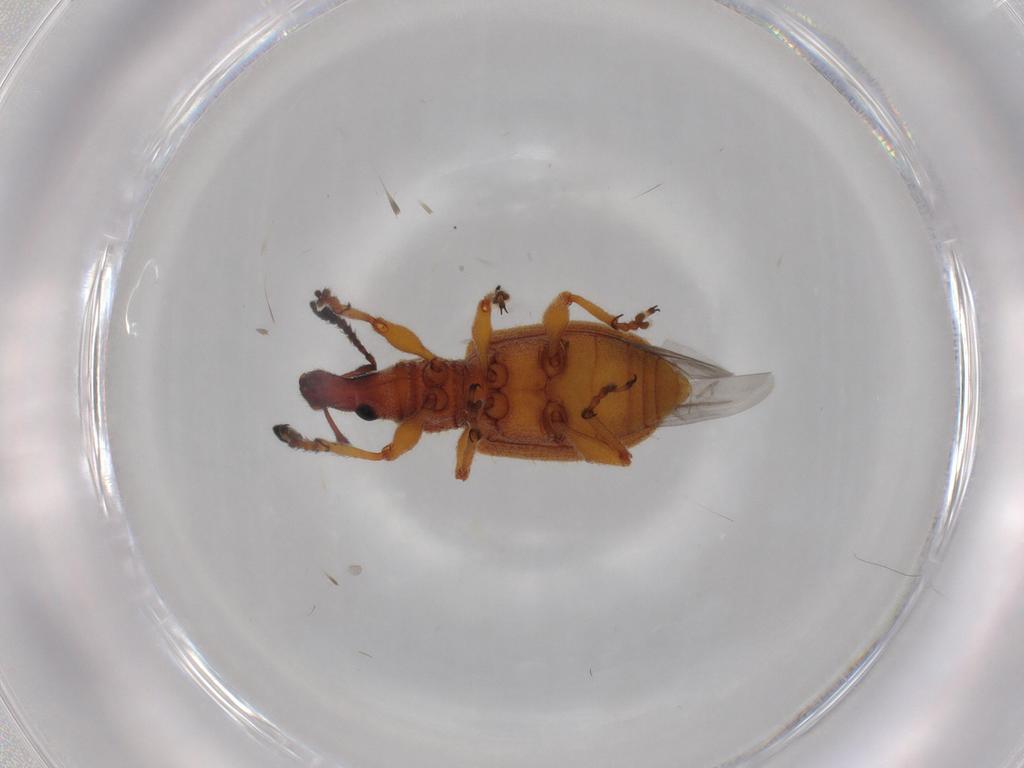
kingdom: Animalia
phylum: Arthropoda
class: Insecta
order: Coleoptera
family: Curculionidae
